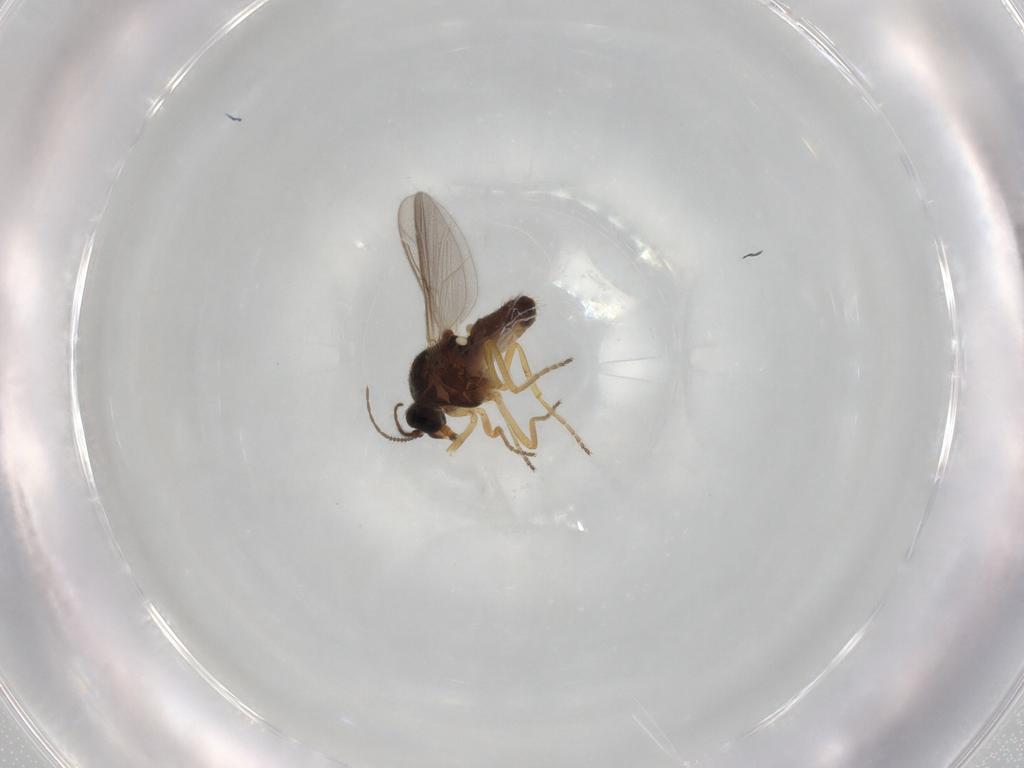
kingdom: Animalia
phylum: Arthropoda
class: Insecta
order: Diptera
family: Ceratopogonidae
